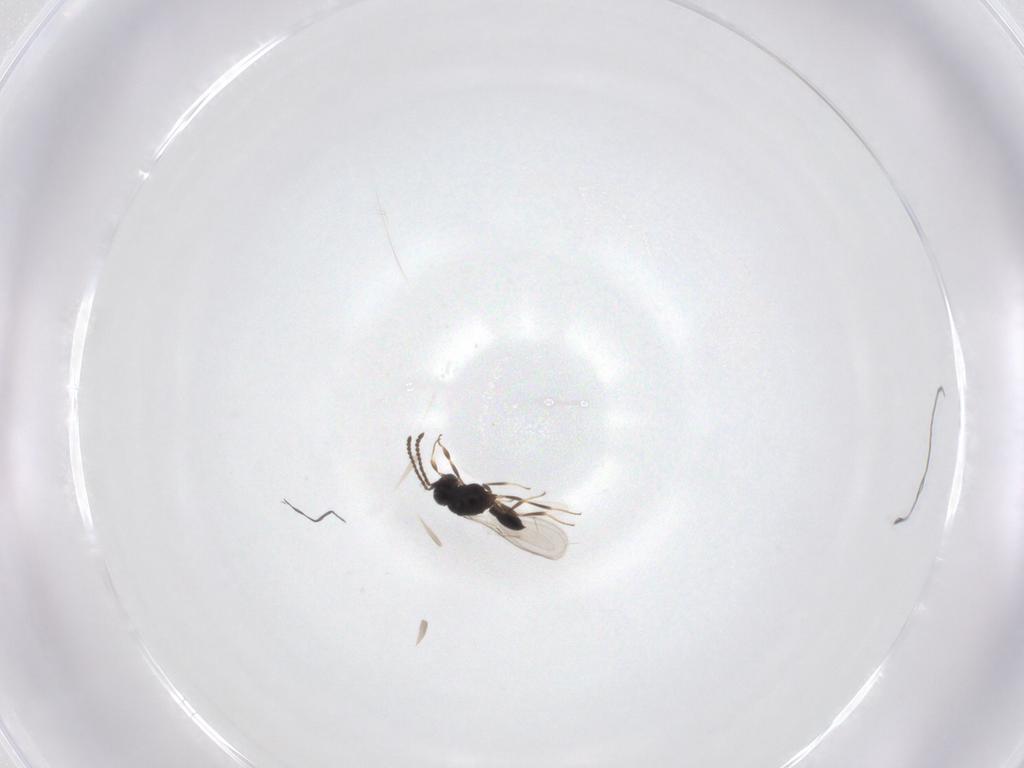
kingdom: Animalia
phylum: Arthropoda
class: Insecta
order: Hymenoptera
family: Scelionidae
